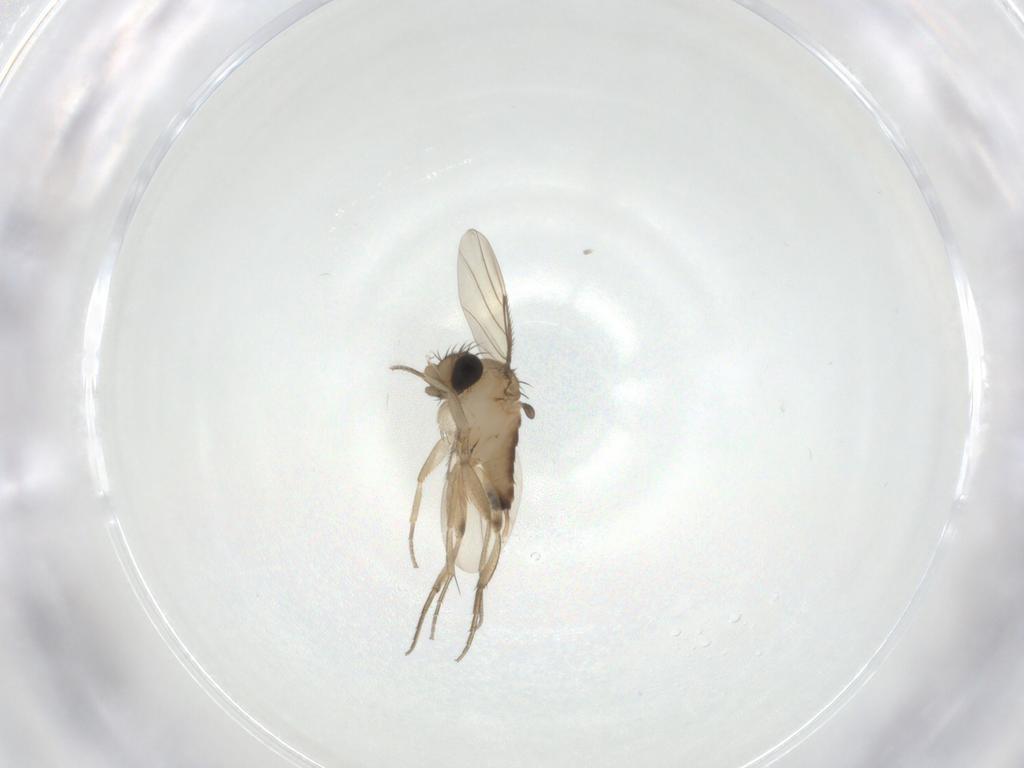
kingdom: Animalia
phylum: Arthropoda
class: Insecta
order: Diptera
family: Phoridae
